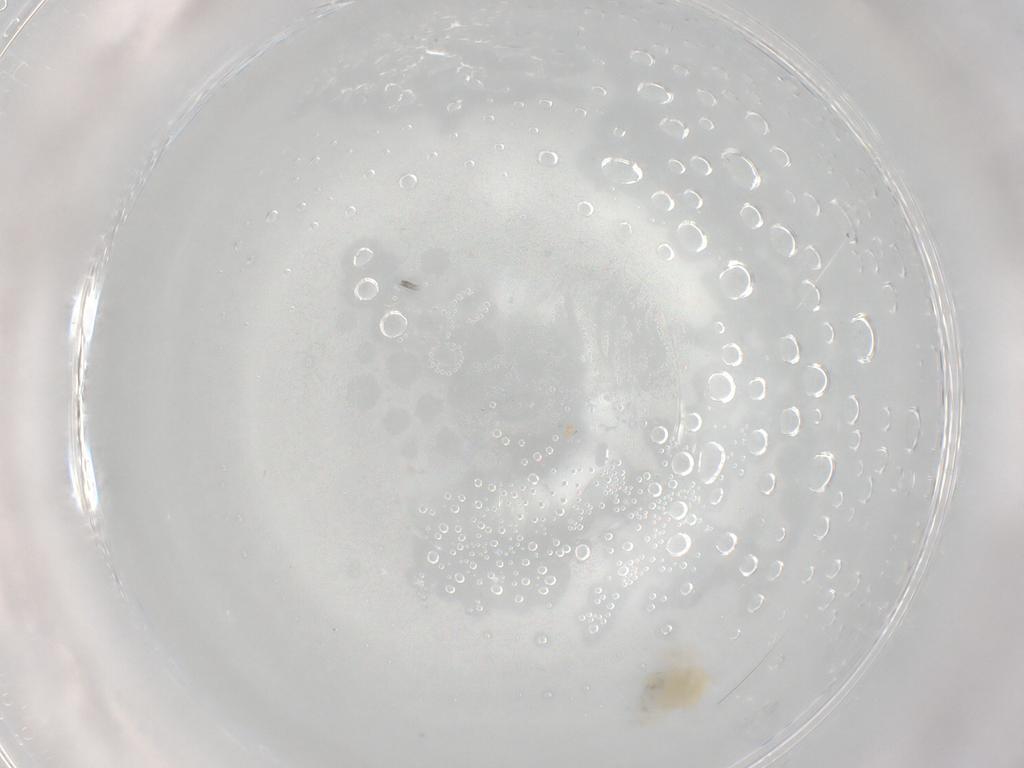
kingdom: Animalia
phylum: Arthropoda
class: Arachnida
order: Trombidiformes
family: Anystidae
